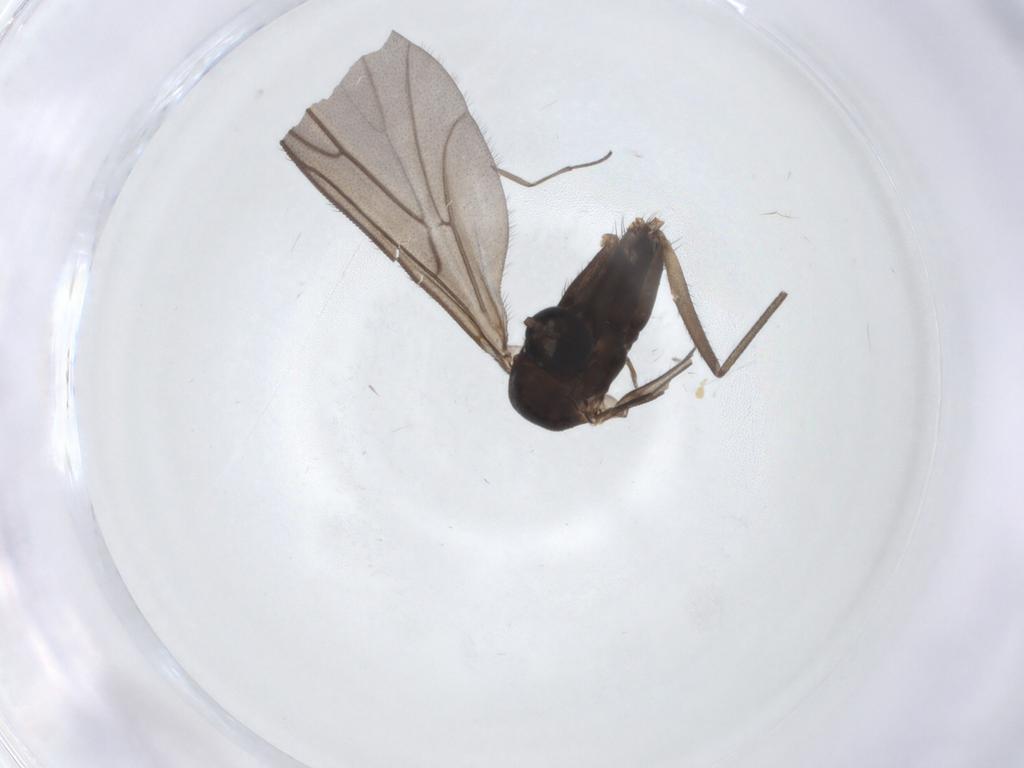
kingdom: Animalia
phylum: Arthropoda
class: Insecta
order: Diptera
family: Ditomyiidae
